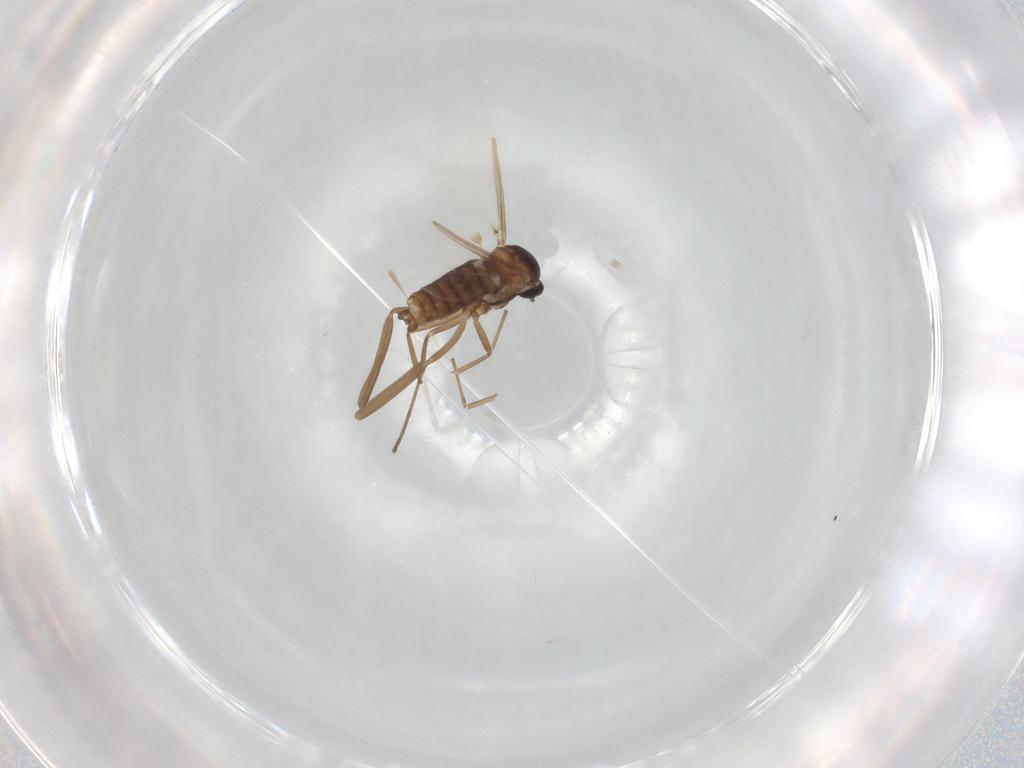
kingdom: Animalia
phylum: Arthropoda
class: Insecta
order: Diptera
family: Cecidomyiidae
